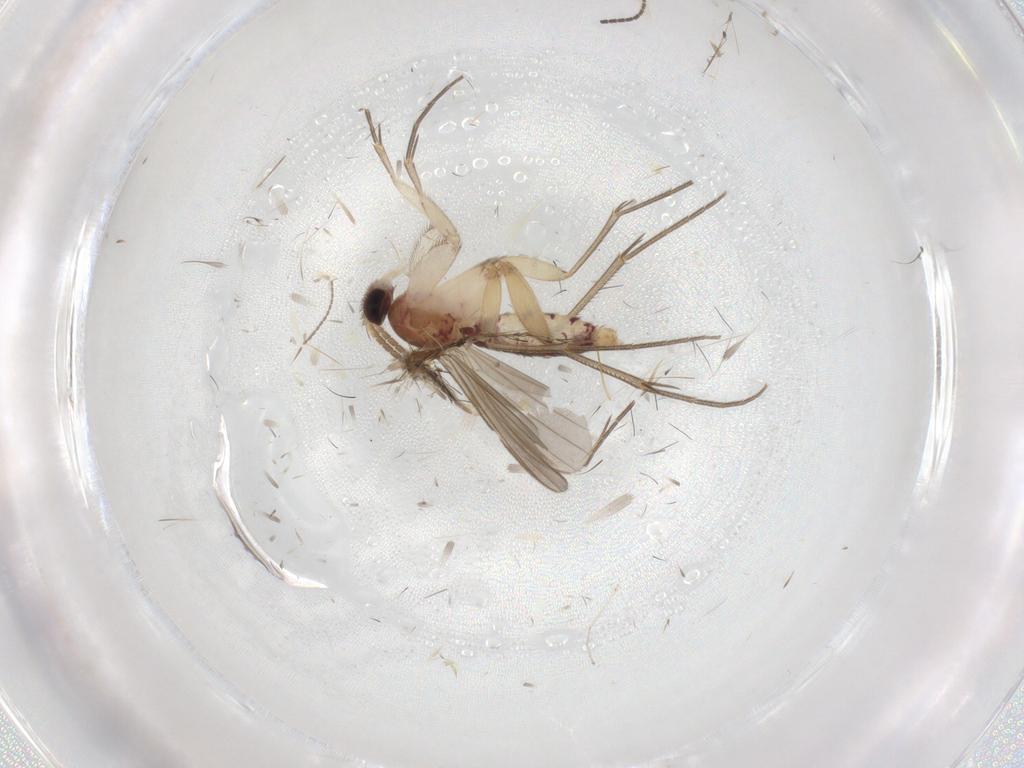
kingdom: Animalia
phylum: Arthropoda
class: Insecta
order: Diptera
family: Mycetophilidae
